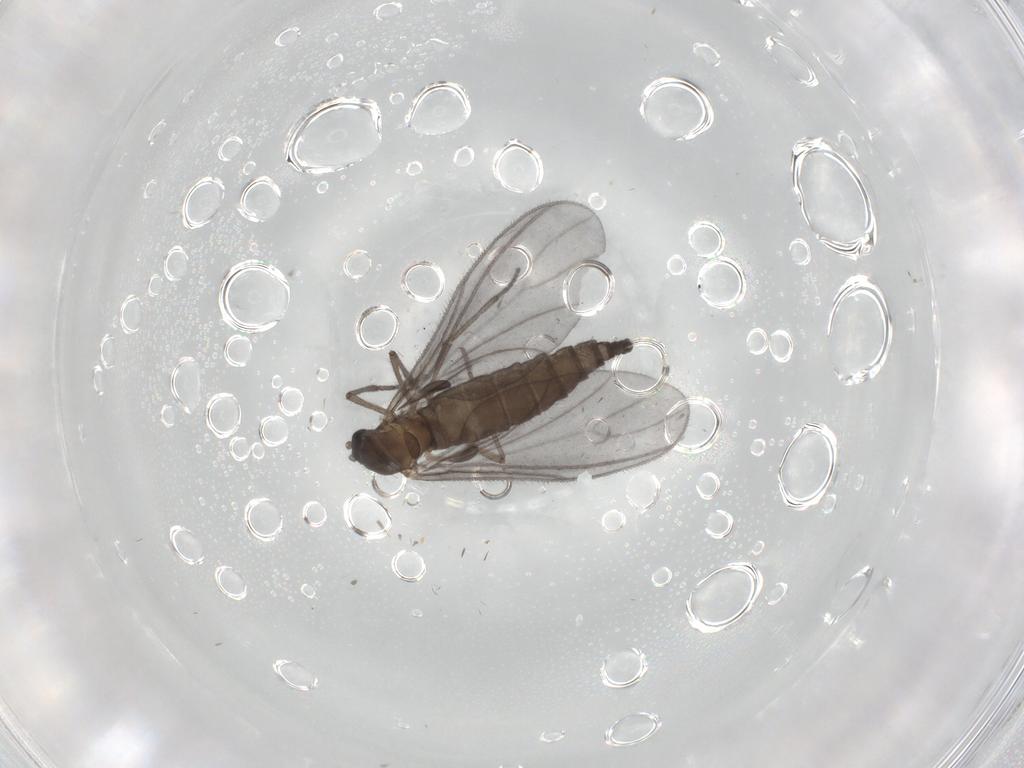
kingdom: Animalia
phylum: Arthropoda
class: Insecta
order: Diptera
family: Sciaridae
